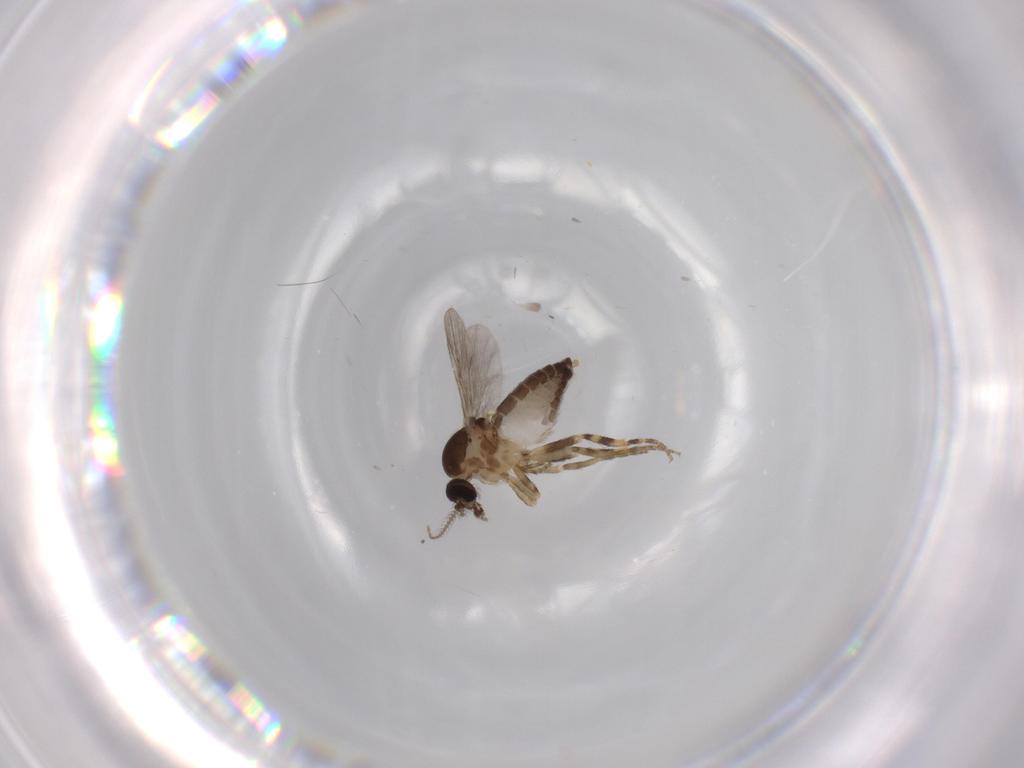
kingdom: Animalia
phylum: Arthropoda
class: Insecta
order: Diptera
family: Ceratopogonidae
